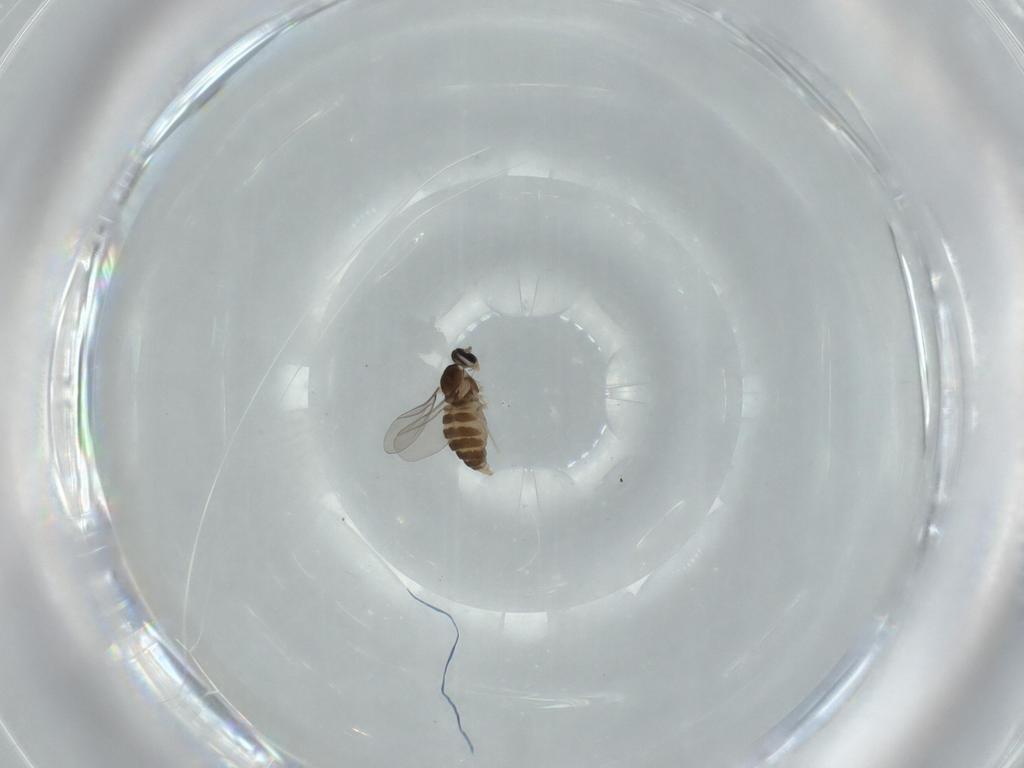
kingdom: Animalia
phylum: Arthropoda
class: Insecta
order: Diptera
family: Cecidomyiidae
